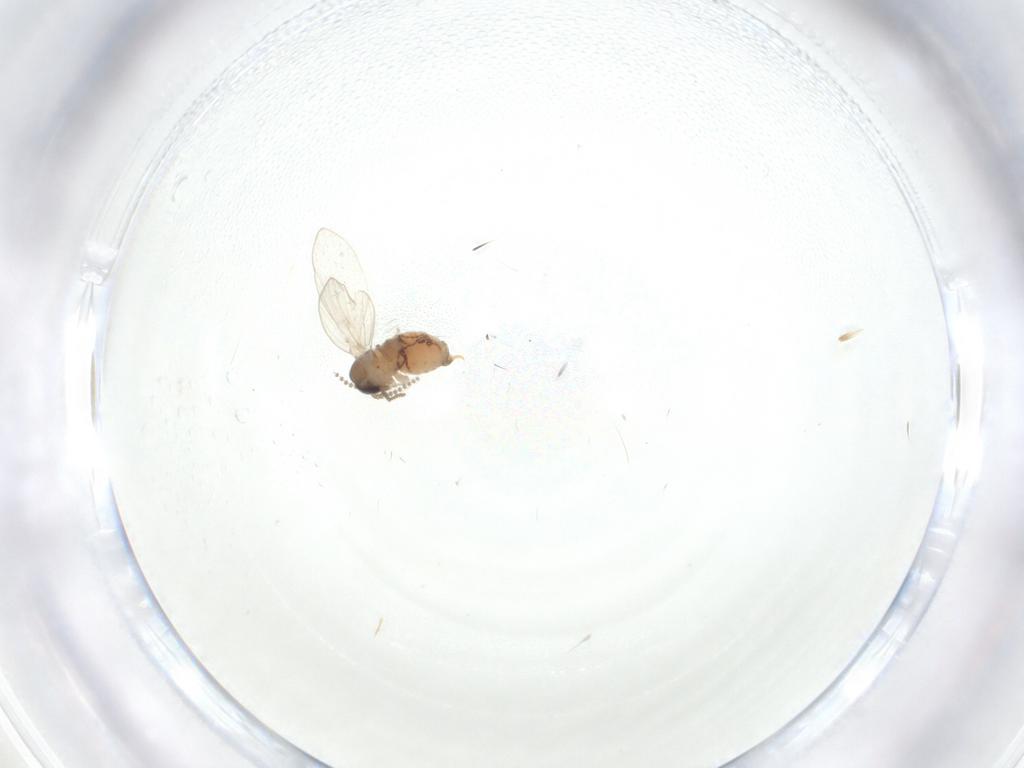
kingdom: Animalia
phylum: Arthropoda
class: Insecta
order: Diptera
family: Psychodidae
